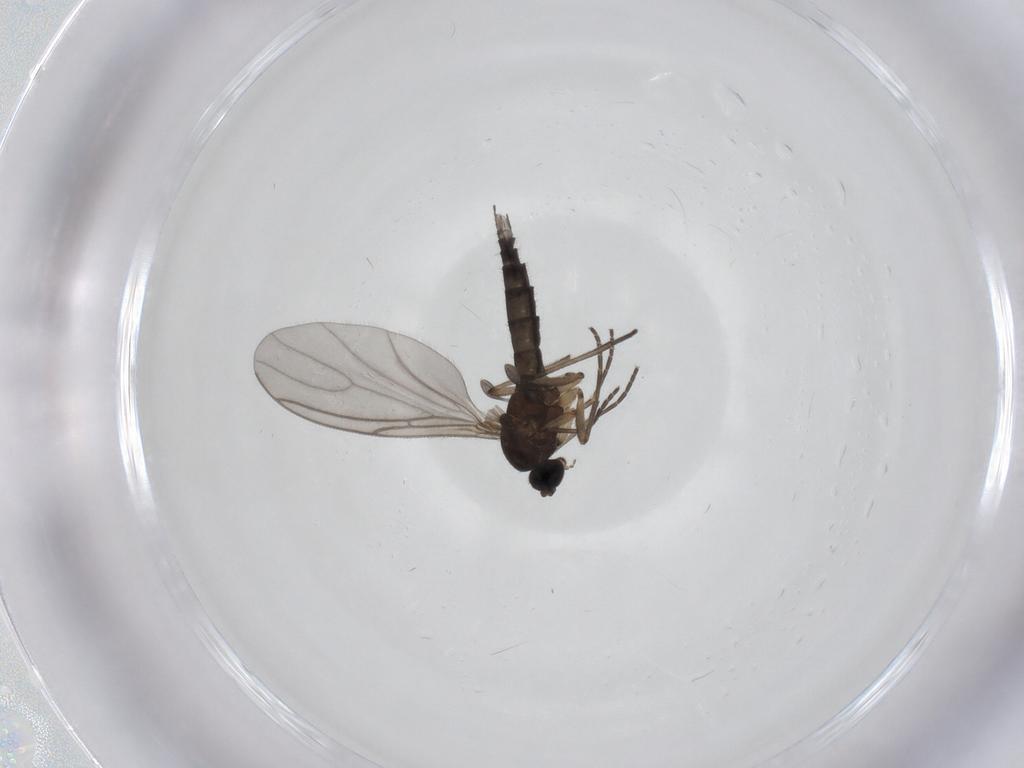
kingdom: Animalia
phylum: Arthropoda
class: Insecta
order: Diptera
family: Sciaridae
